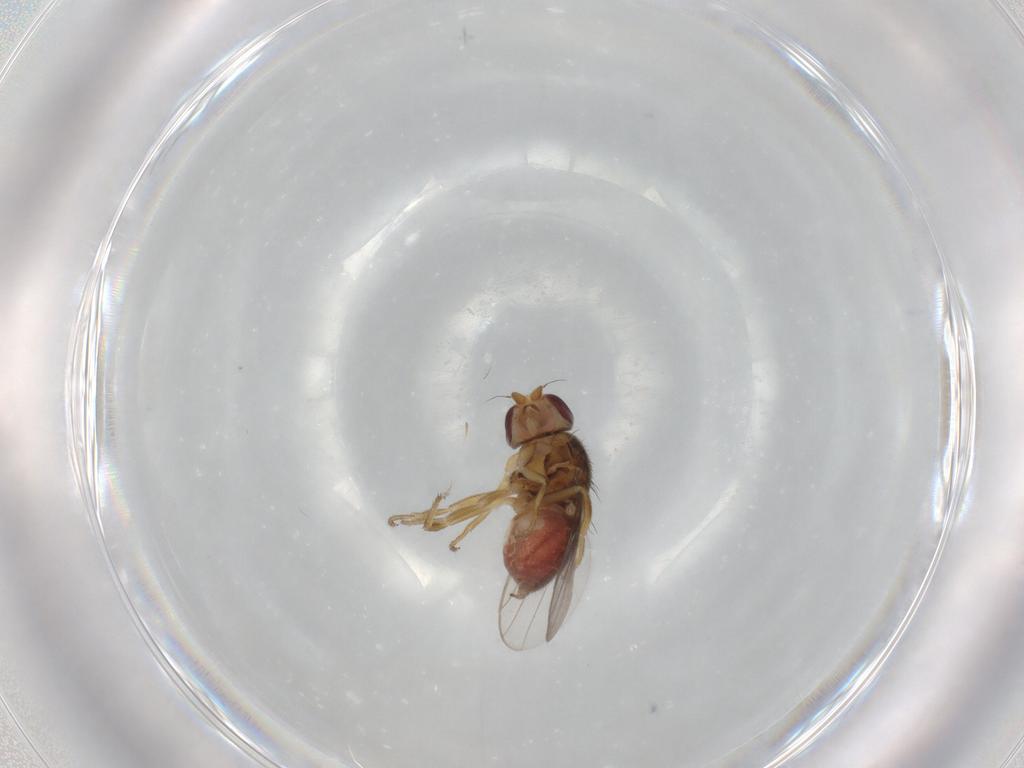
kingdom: Animalia
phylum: Arthropoda
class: Insecta
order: Diptera
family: Chloropidae
